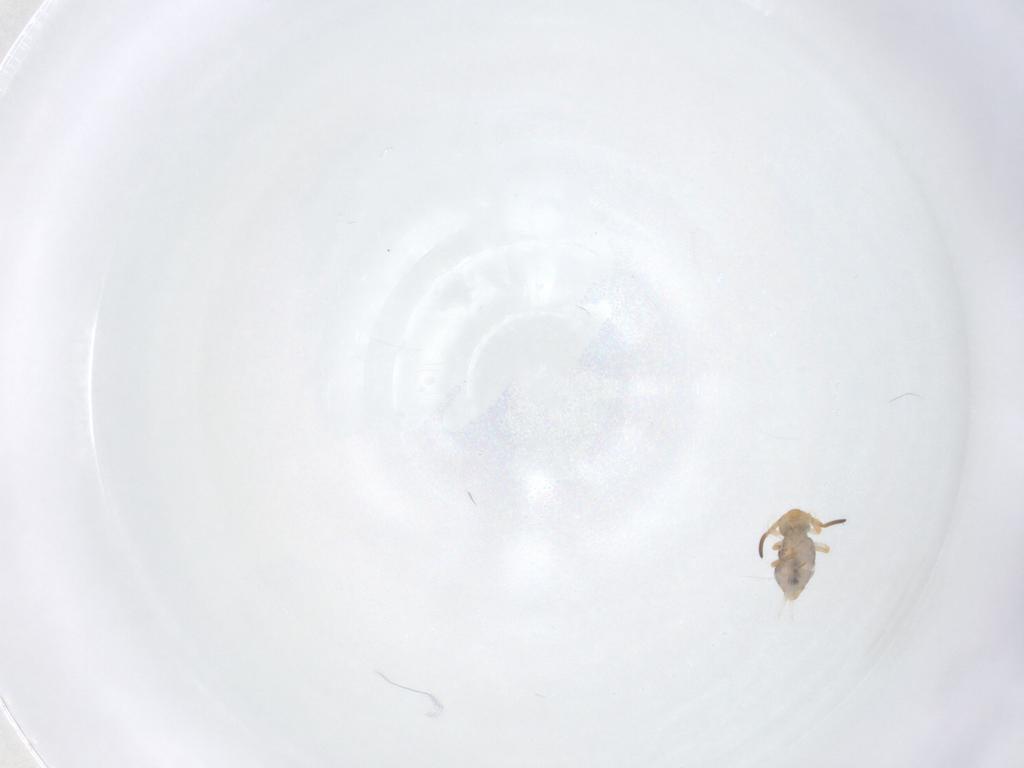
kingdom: Animalia
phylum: Arthropoda
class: Collembola
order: Symphypleona
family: Katiannidae
